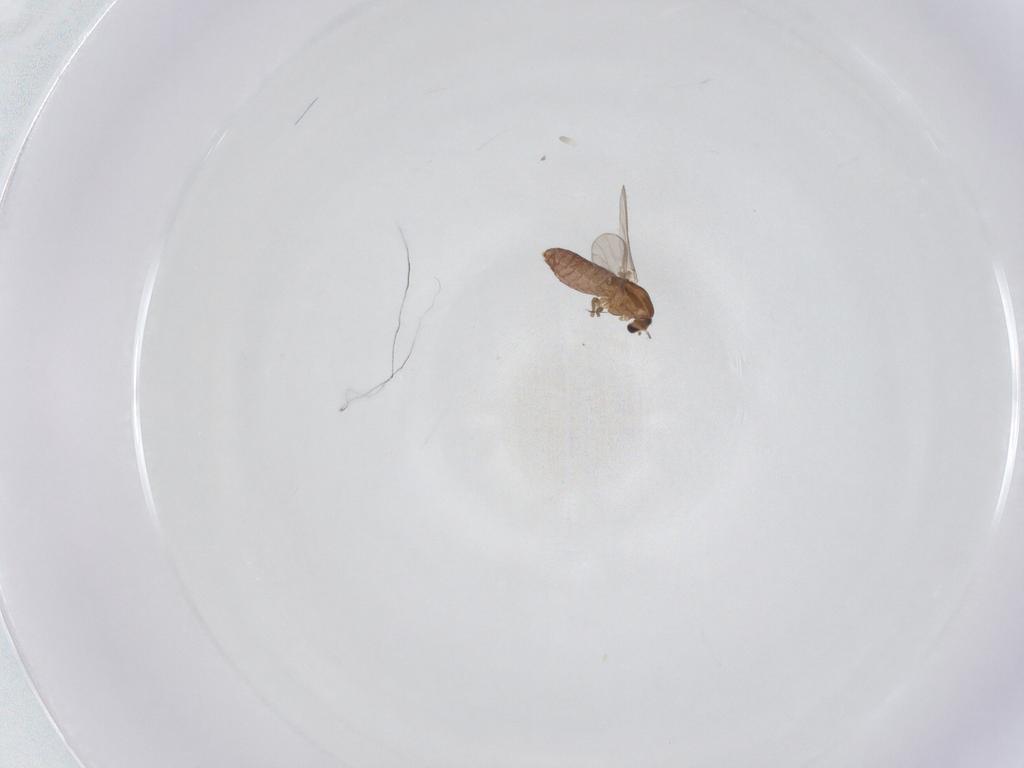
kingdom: Animalia
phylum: Arthropoda
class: Insecta
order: Diptera
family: Chironomidae
